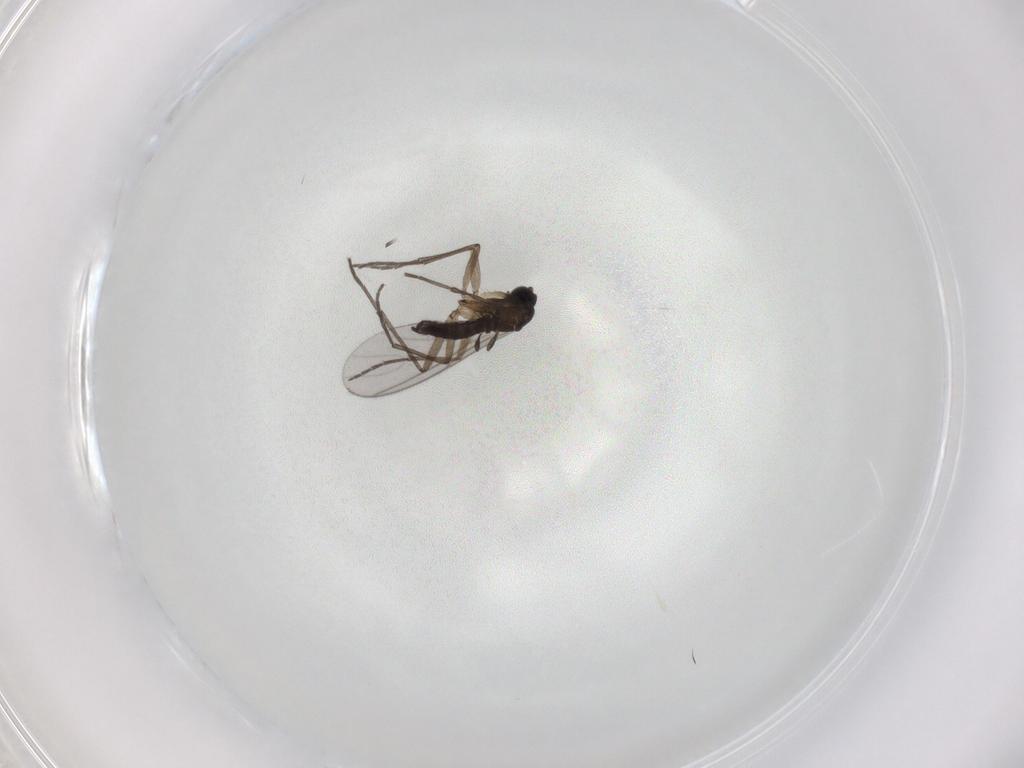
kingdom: Animalia
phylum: Arthropoda
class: Insecta
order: Diptera
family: Sciaridae
